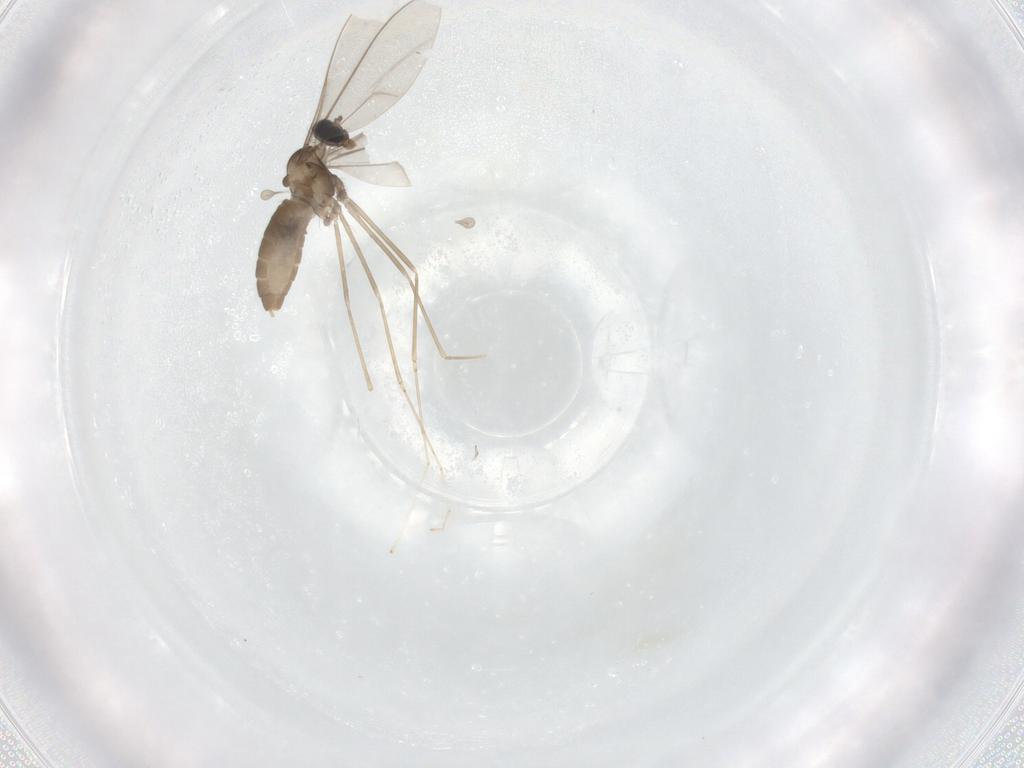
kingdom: Animalia
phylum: Arthropoda
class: Insecta
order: Diptera
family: Cecidomyiidae
